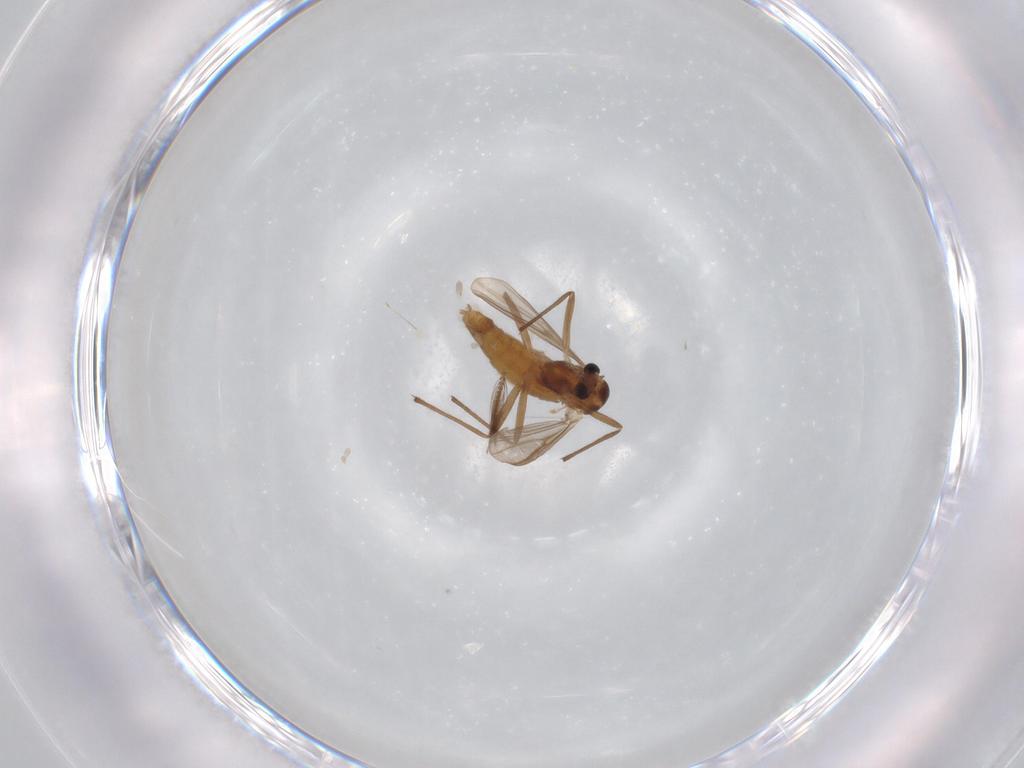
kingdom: Animalia
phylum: Arthropoda
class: Insecta
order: Diptera
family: Chironomidae
